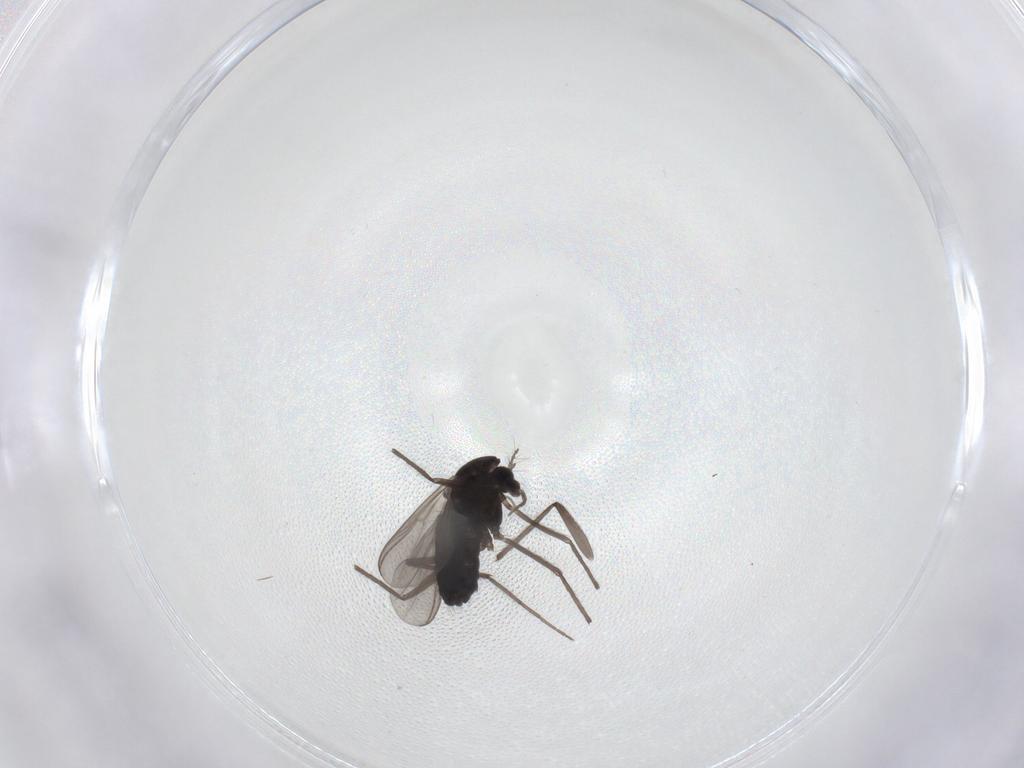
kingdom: Animalia
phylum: Arthropoda
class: Insecta
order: Diptera
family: Chironomidae
